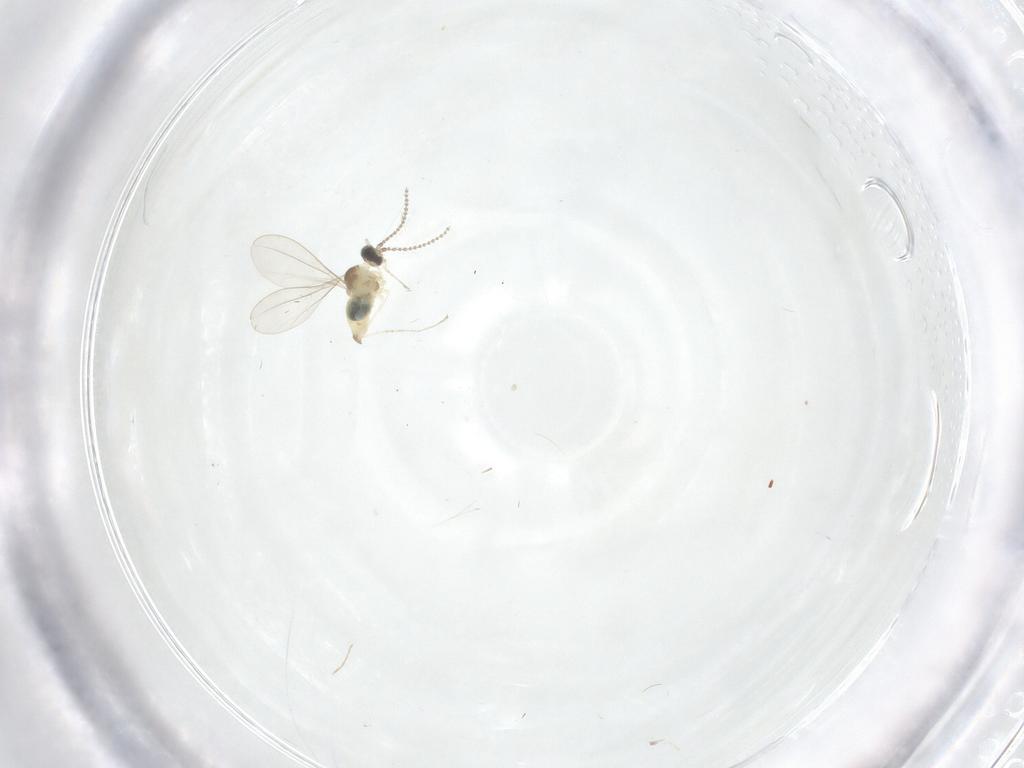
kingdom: Animalia
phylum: Arthropoda
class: Insecta
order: Diptera
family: Cecidomyiidae
